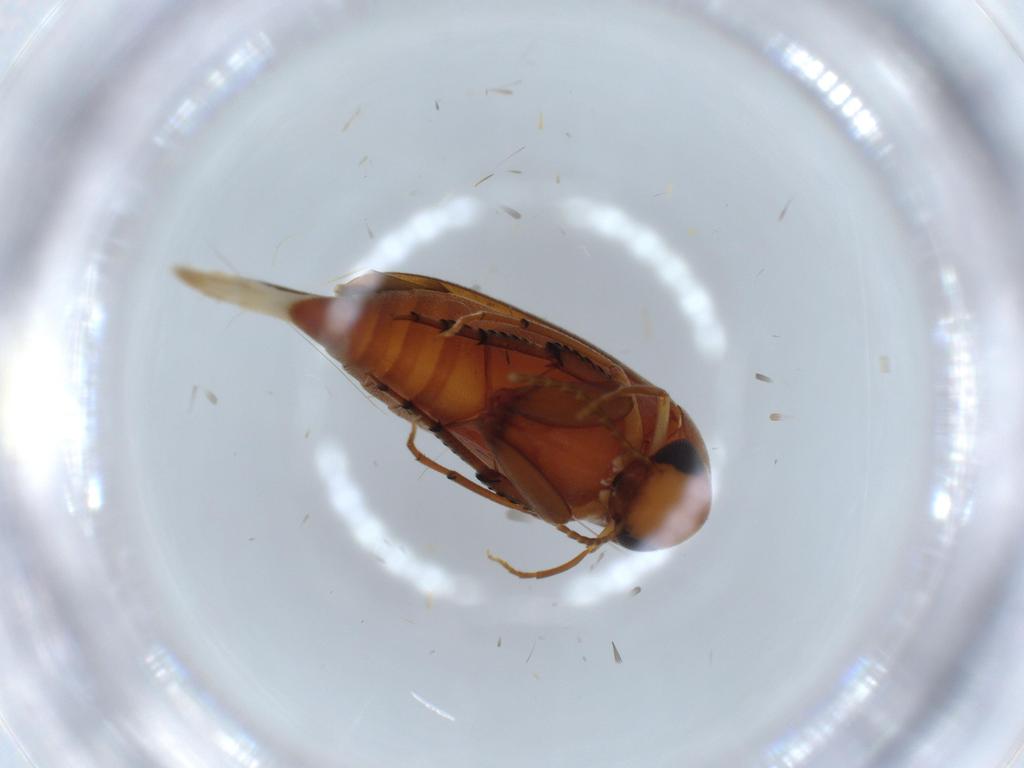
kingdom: Animalia
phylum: Arthropoda
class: Insecta
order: Coleoptera
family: Mordellidae
